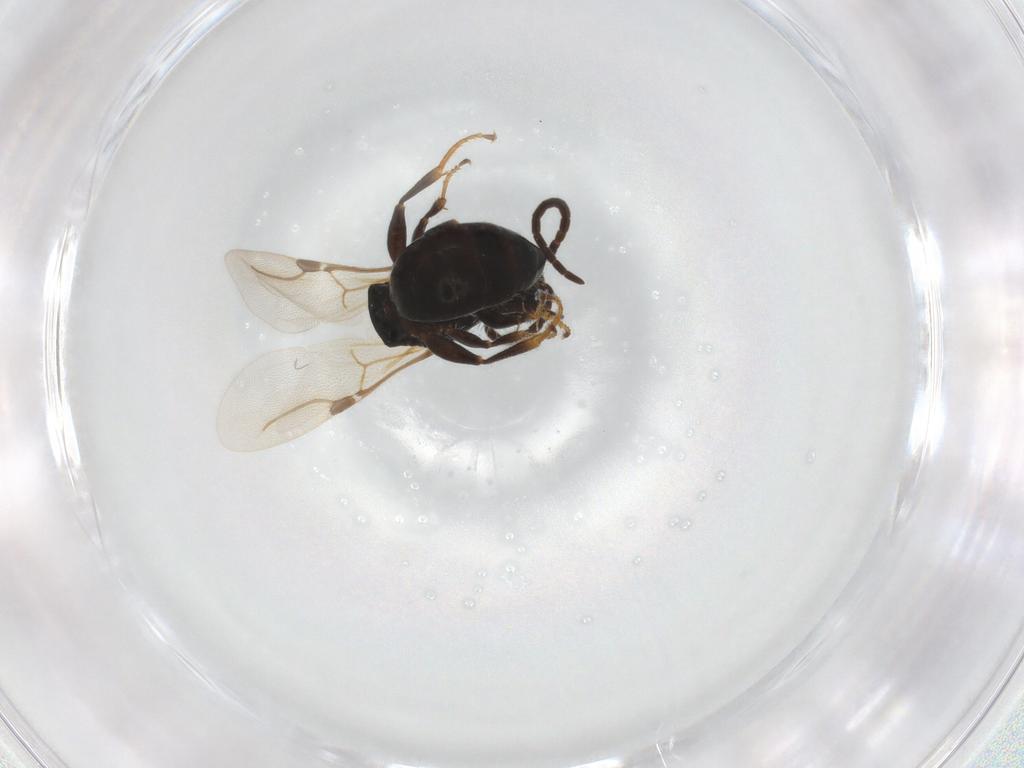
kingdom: Animalia
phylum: Arthropoda
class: Insecta
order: Hymenoptera
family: Bethylidae
